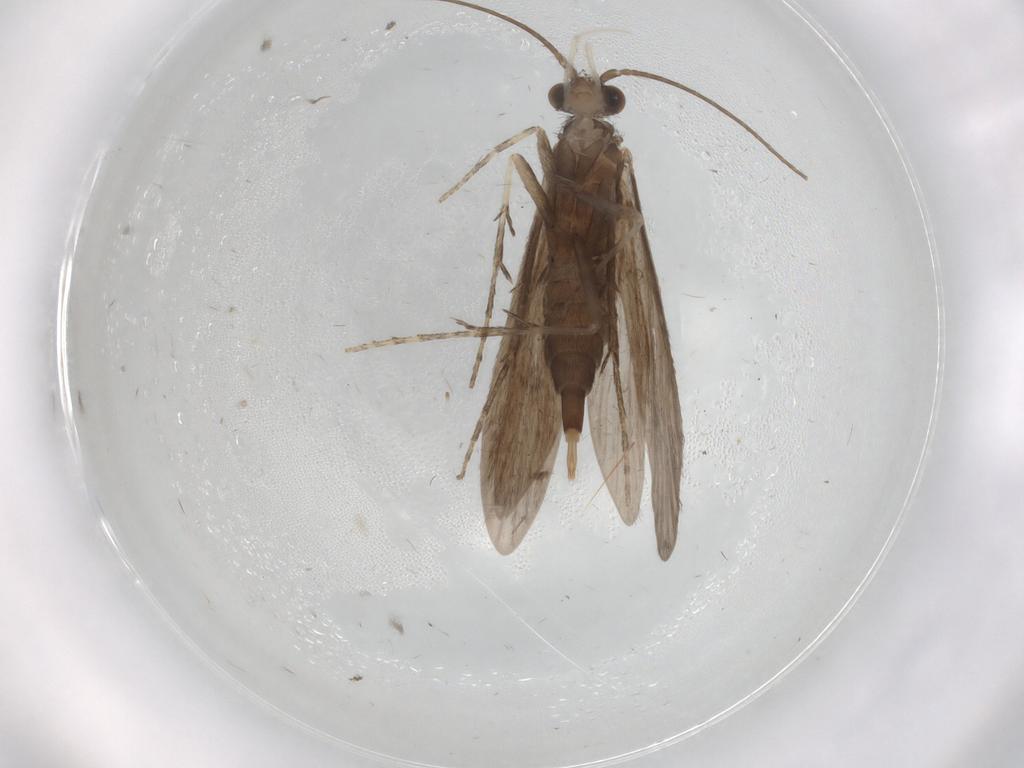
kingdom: Animalia
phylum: Arthropoda
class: Insecta
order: Trichoptera
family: Xiphocentronidae
